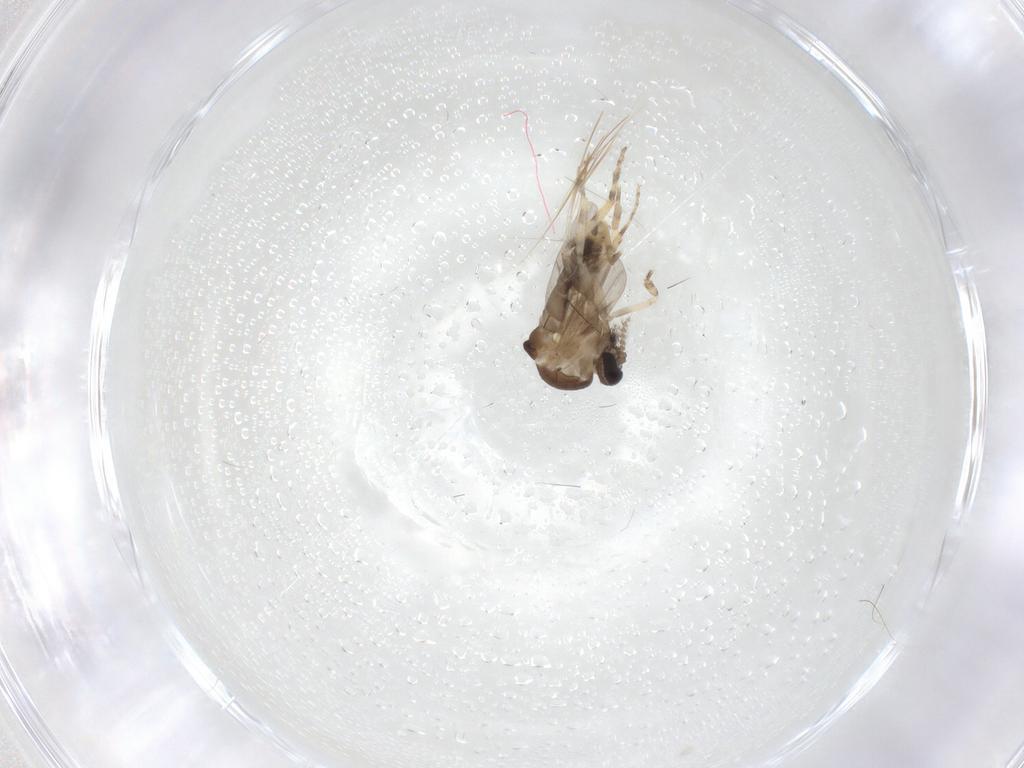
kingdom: Animalia
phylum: Arthropoda
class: Insecta
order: Diptera
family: Ceratopogonidae
